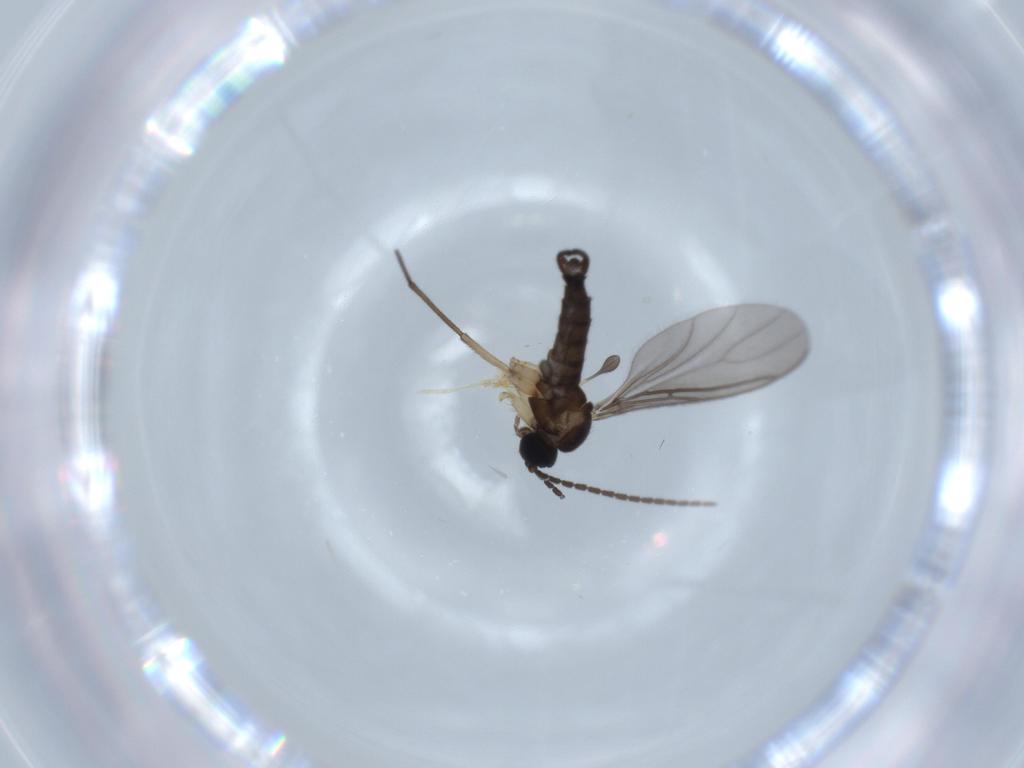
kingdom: Animalia
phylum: Arthropoda
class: Insecta
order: Diptera
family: Sciaridae
